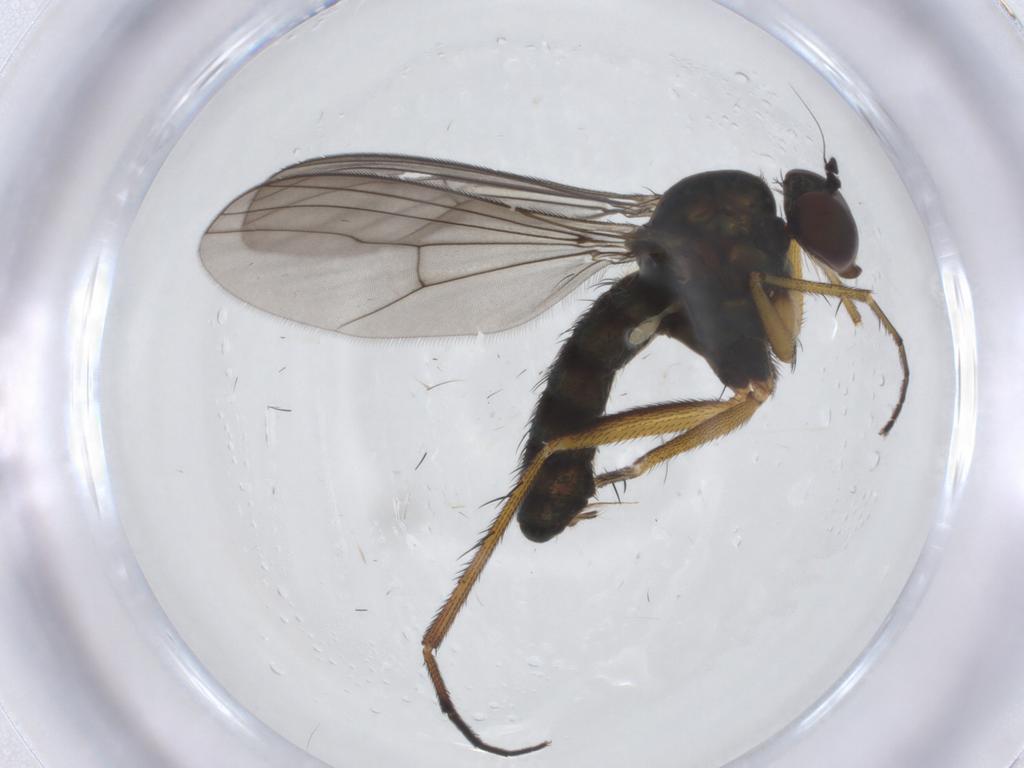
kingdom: Animalia
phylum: Arthropoda
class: Insecta
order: Diptera
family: Dolichopodidae
